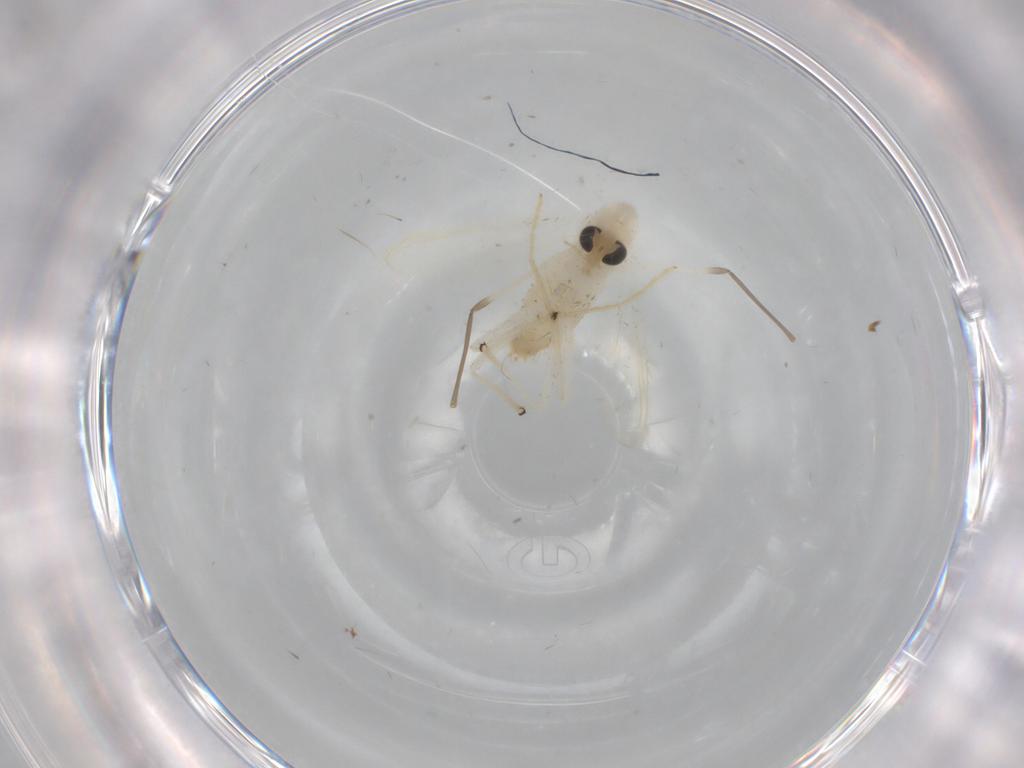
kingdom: Animalia
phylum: Arthropoda
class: Insecta
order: Diptera
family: Chironomidae
